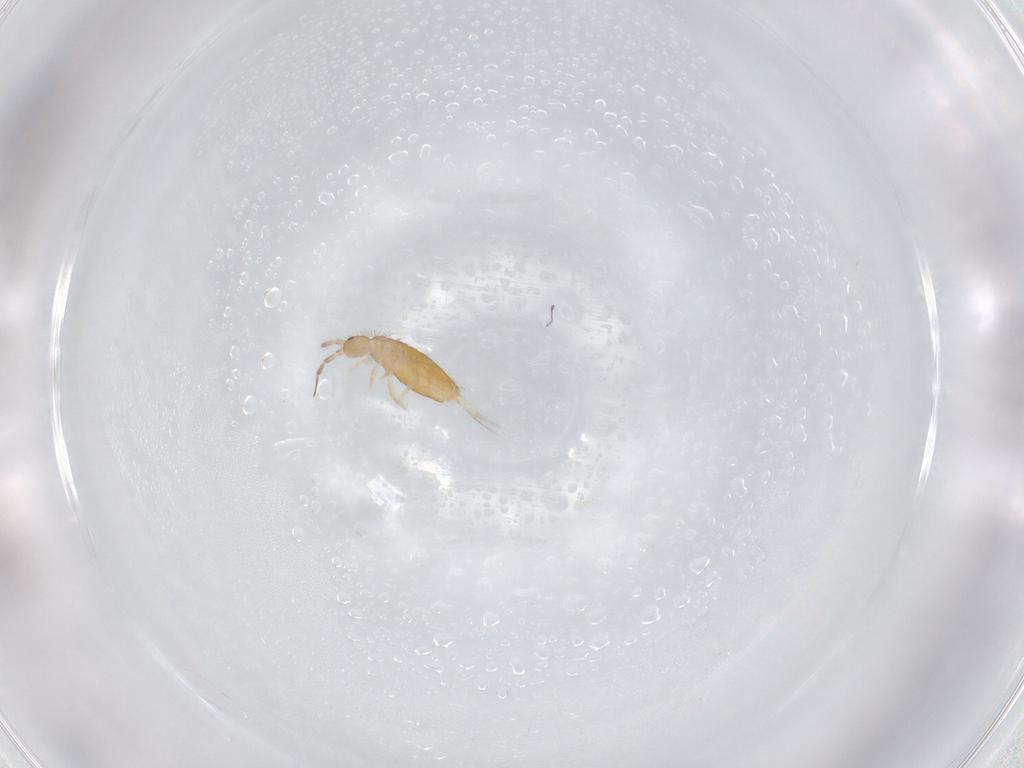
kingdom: Animalia
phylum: Arthropoda
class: Collembola
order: Entomobryomorpha
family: Entomobryidae
